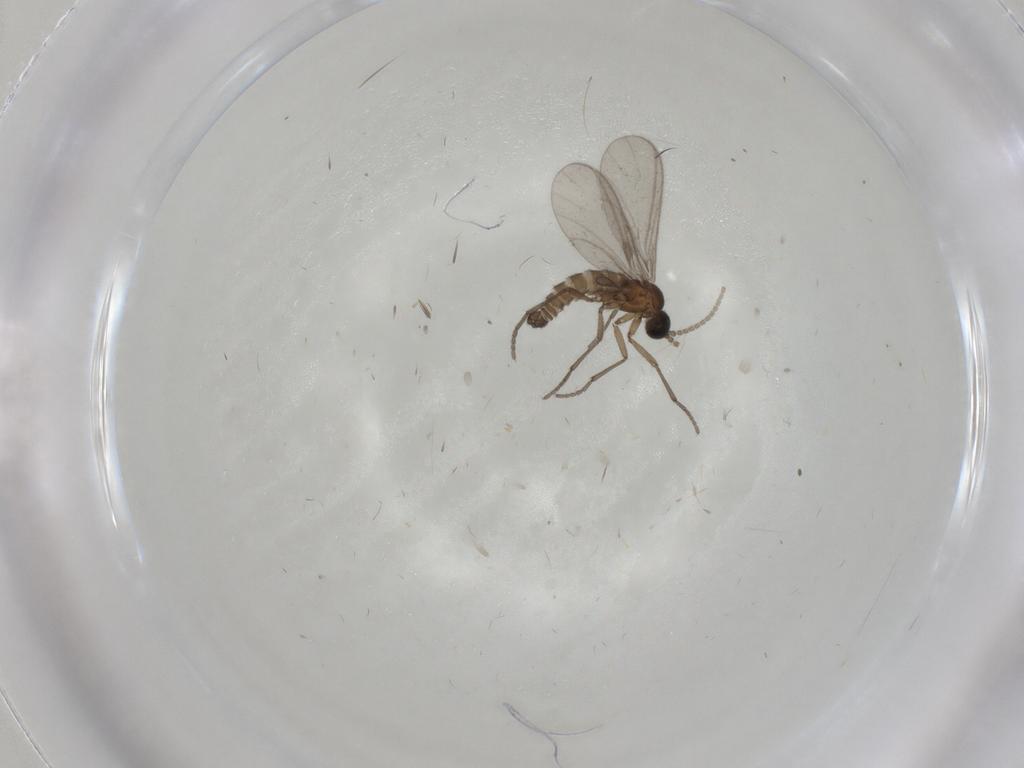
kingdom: Animalia
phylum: Arthropoda
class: Insecta
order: Diptera
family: Sciaridae
